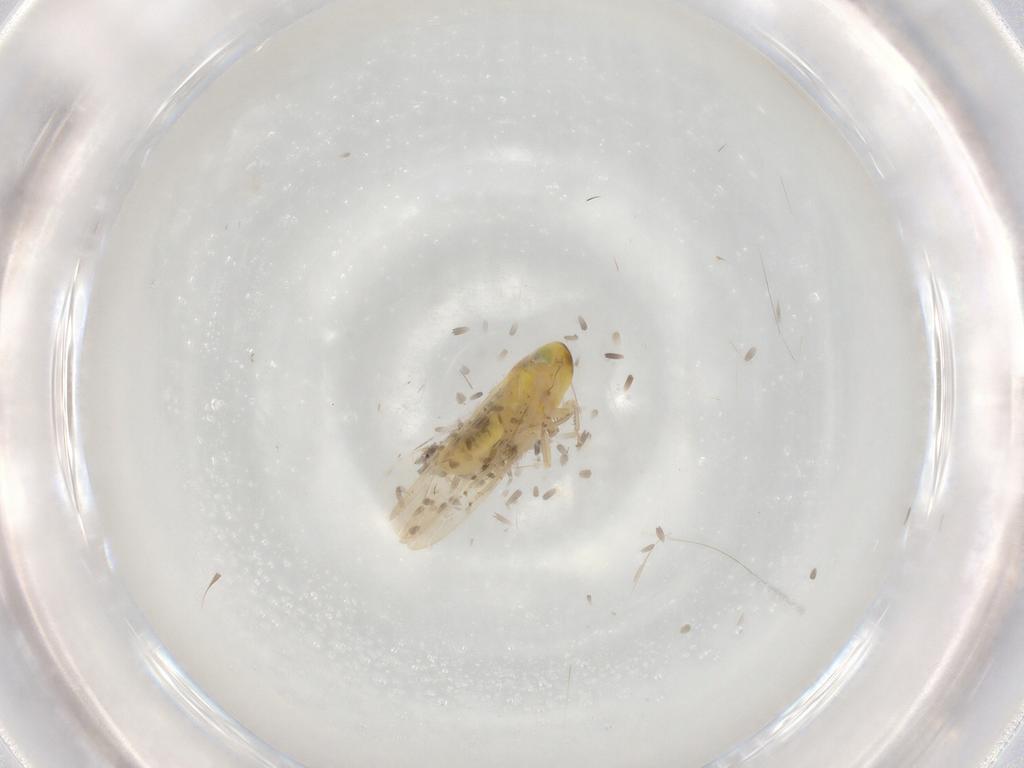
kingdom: Animalia
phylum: Arthropoda
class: Insecta
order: Hemiptera
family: Cicadellidae
